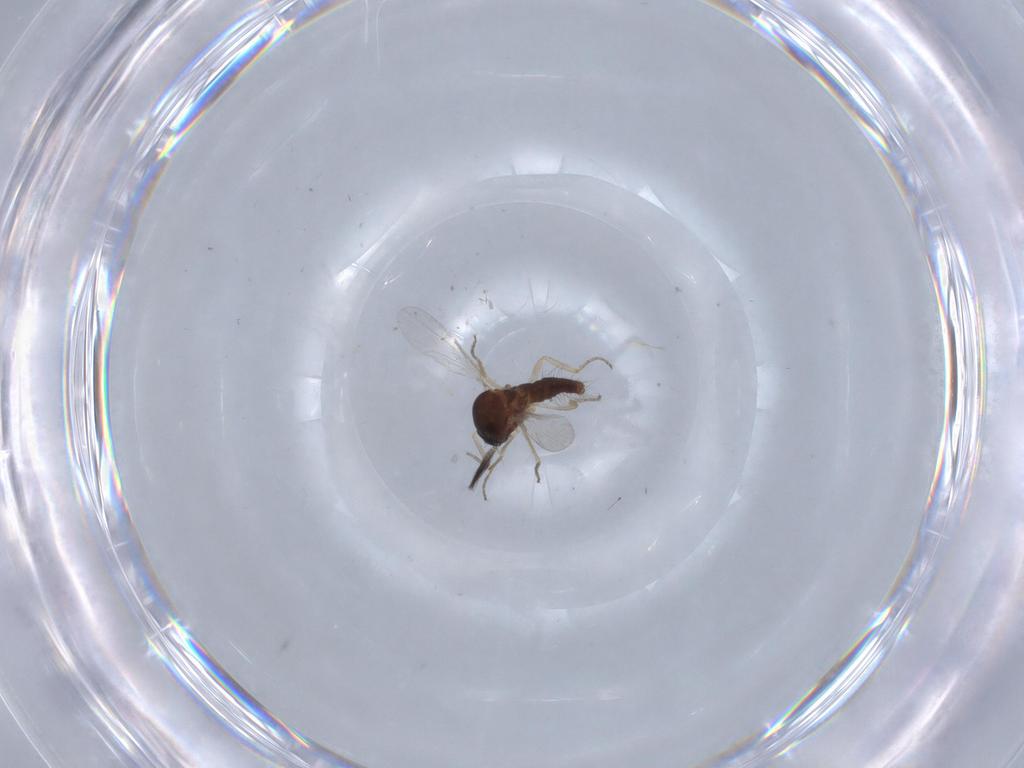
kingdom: Animalia
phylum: Arthropoda
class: Insecta
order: Diptera
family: Ceratopogonidae
